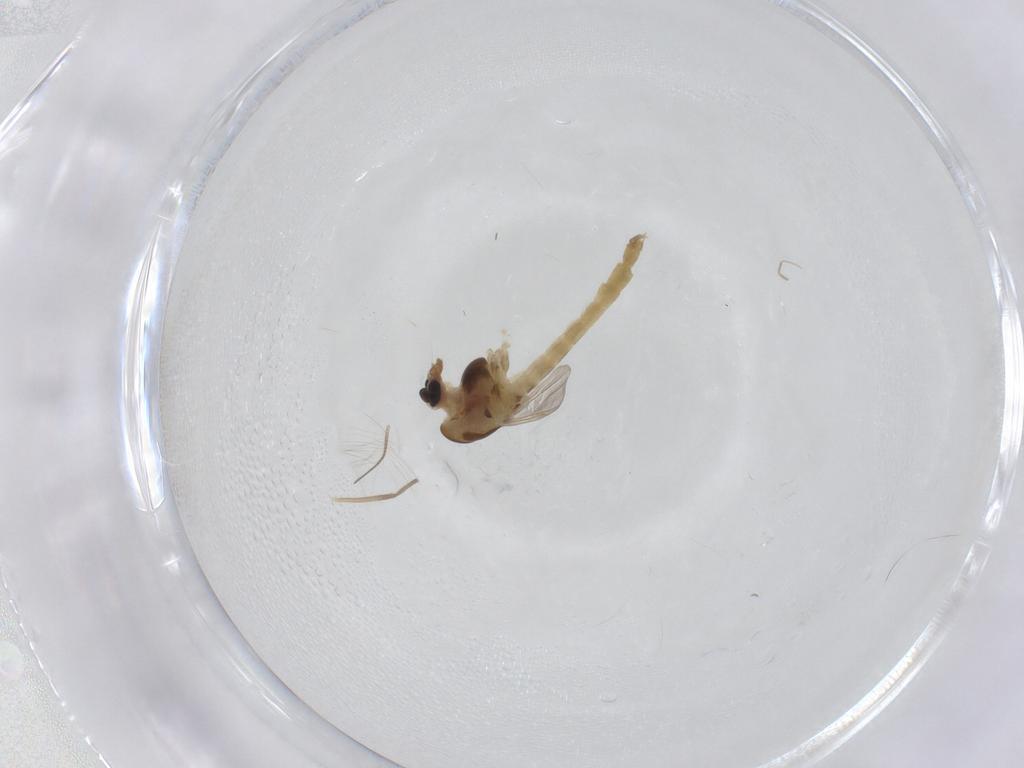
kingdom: Animalia
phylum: Arthropoda
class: Insecta
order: Diptera
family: Chironomidae
